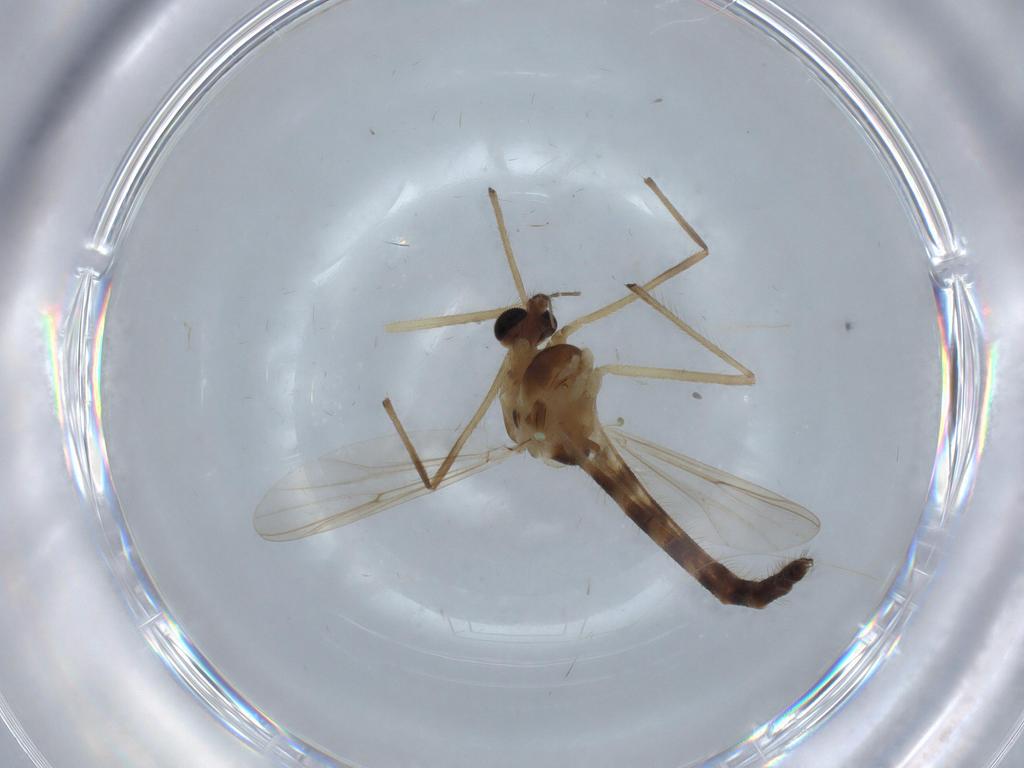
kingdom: Animalia
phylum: Arthropoda
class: Insecta
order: Diptera
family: Chironomidae
